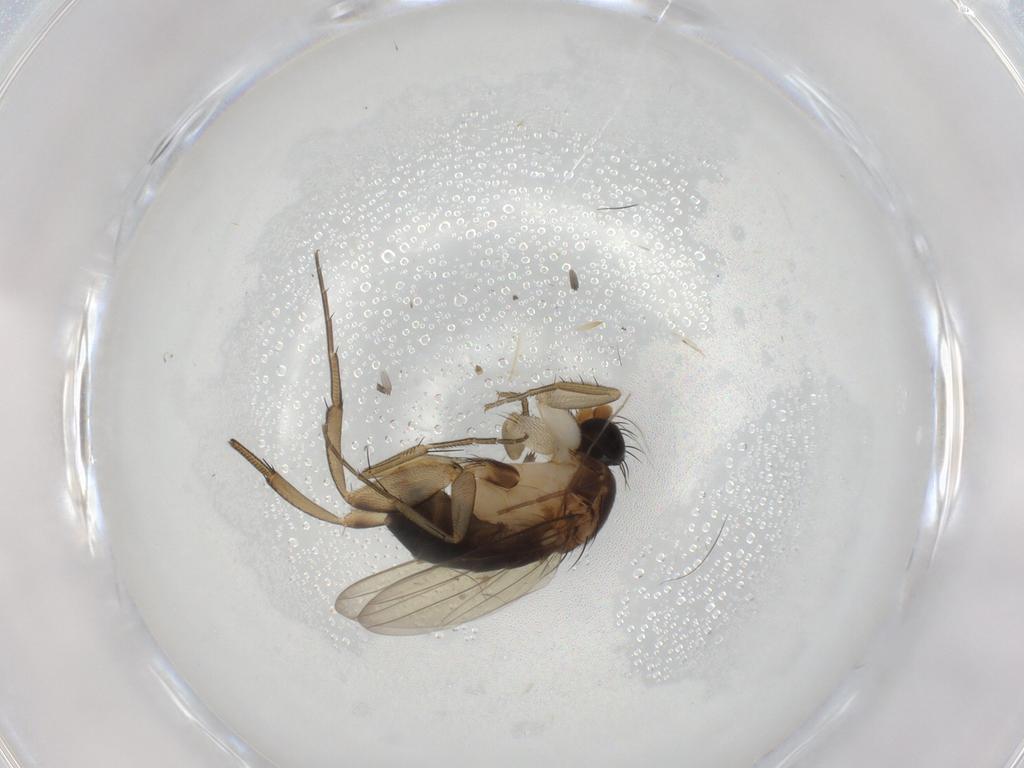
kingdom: Animalia
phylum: Arthropoda
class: Insecta
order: Diptera
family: Phoridae
